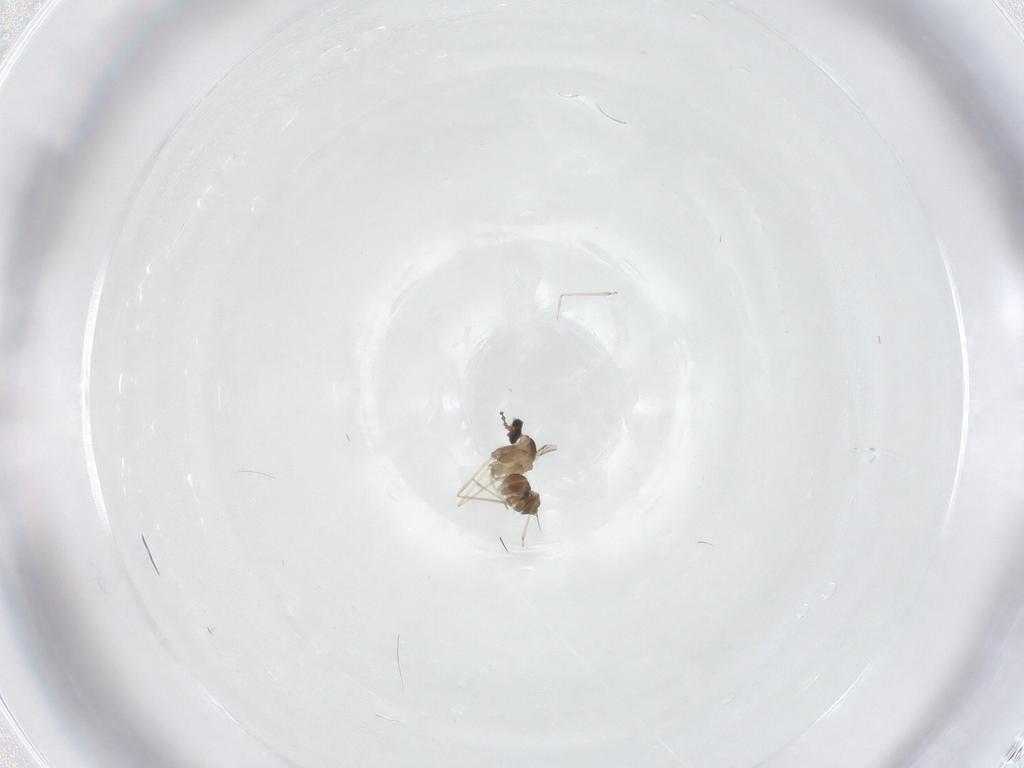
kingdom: Animalia
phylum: Arthropoda
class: Insecta
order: Diptera
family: Cecidomyiidae
